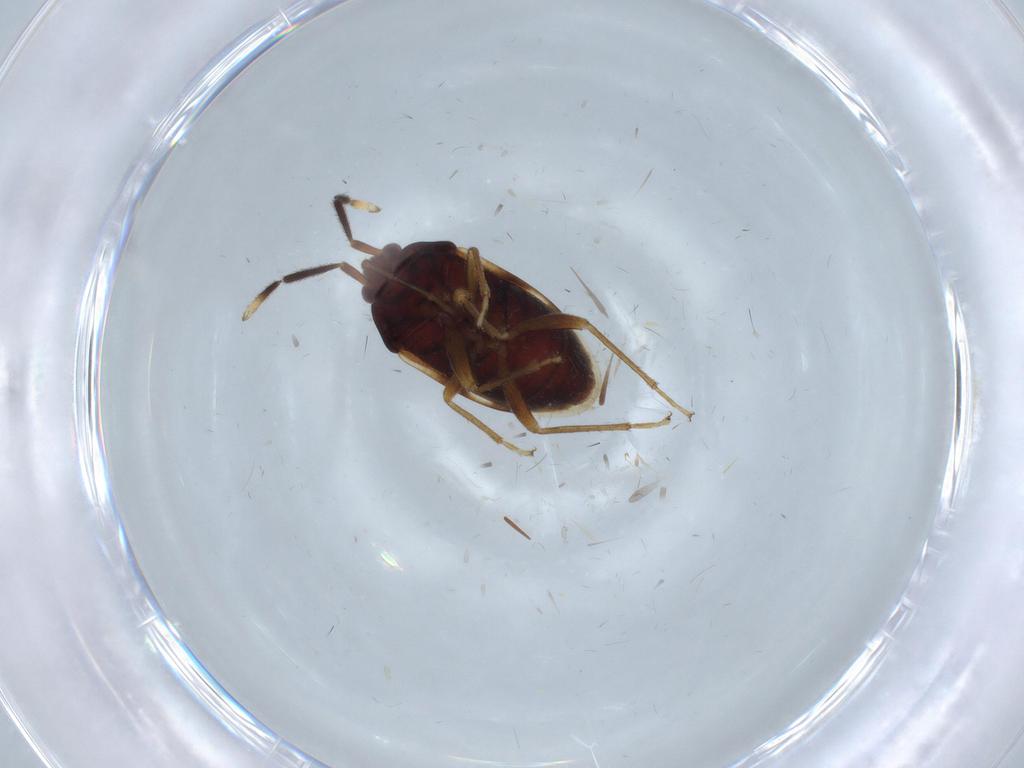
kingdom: Animalia
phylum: Arthropoda
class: Insecta
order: Hemiptera
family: Rhyparochromidae
